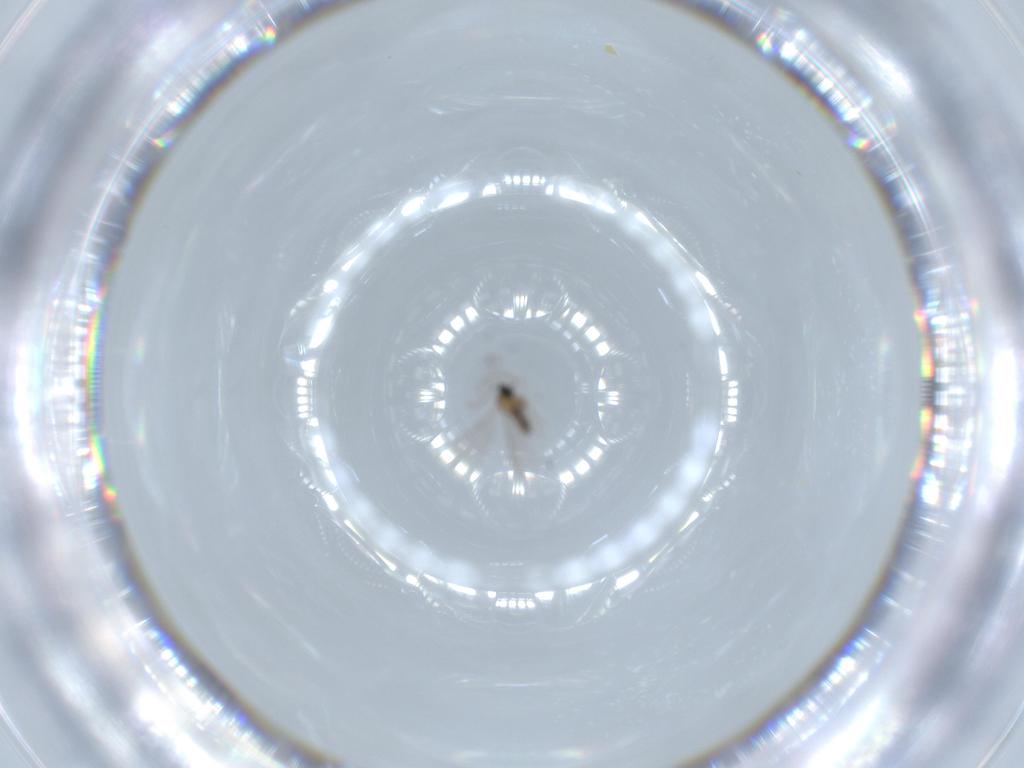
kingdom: Animalia
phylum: Arthropoda
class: Insecta
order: Diptera
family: Cecidomyiidae
